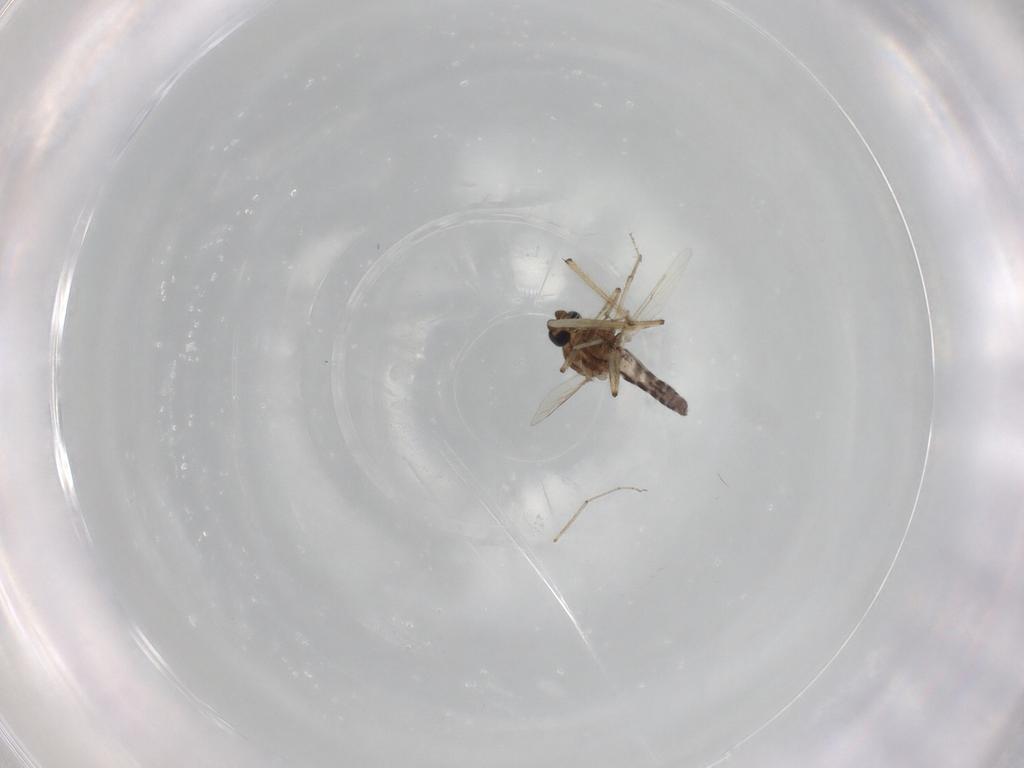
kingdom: Animalia
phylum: Arthropoda
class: Insecta
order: Diptera
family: Ceratopogonidae
